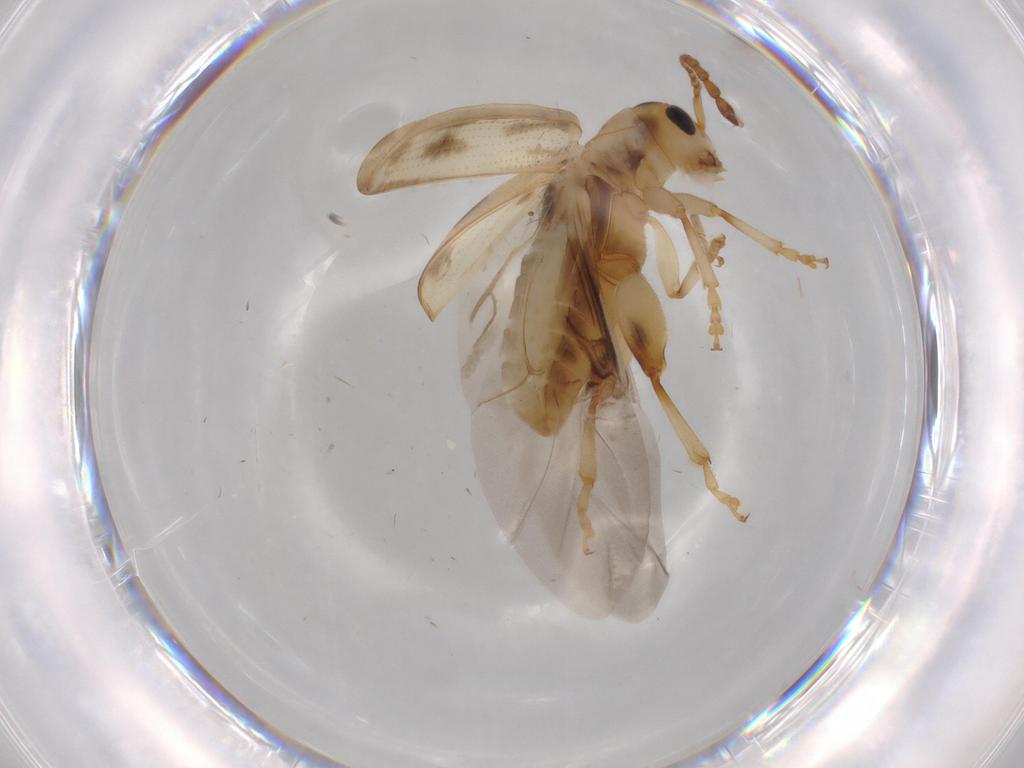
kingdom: Animalia
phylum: Arthropoda
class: Insecta
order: Coleoptera
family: Chrysomelidae
